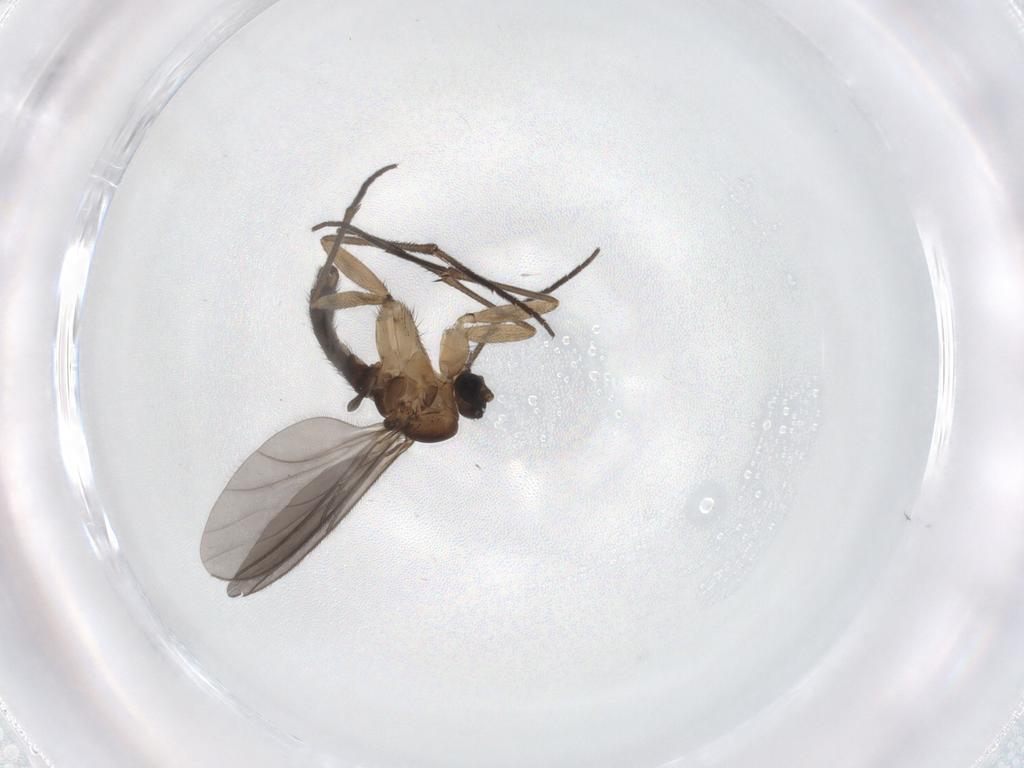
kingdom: Animalia
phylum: Arthropoda
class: Insecta
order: Diptera
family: Sciaridae
